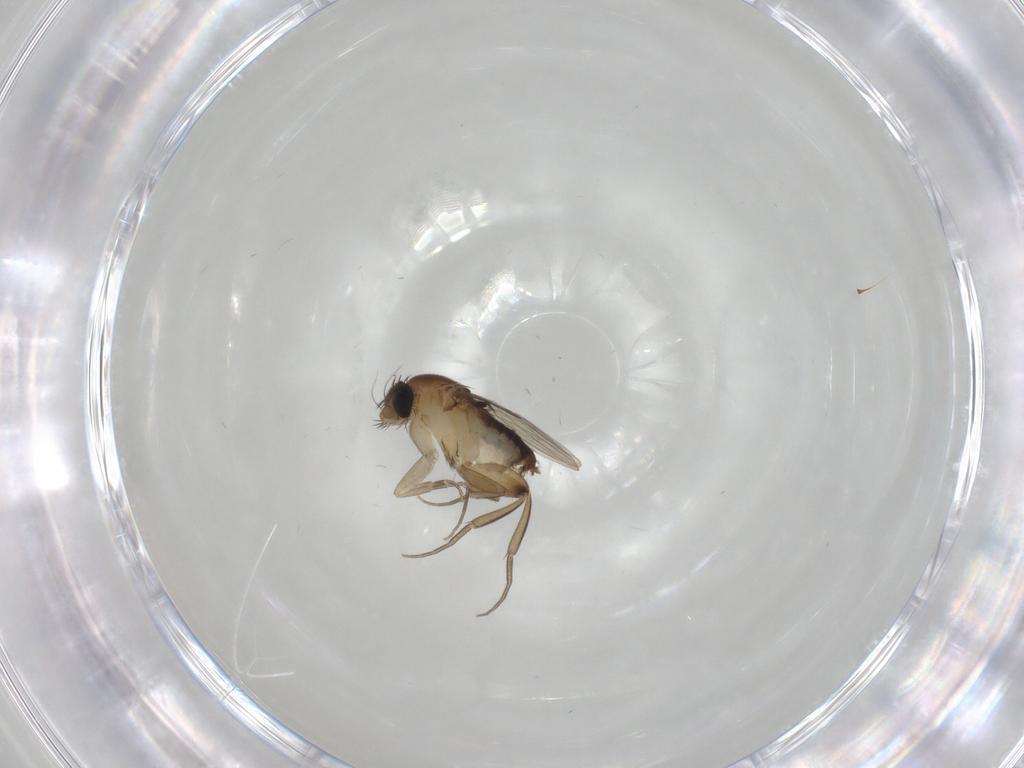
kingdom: Animalia
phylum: Arthropoda
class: Insecta
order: Diptera
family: Phoridae
